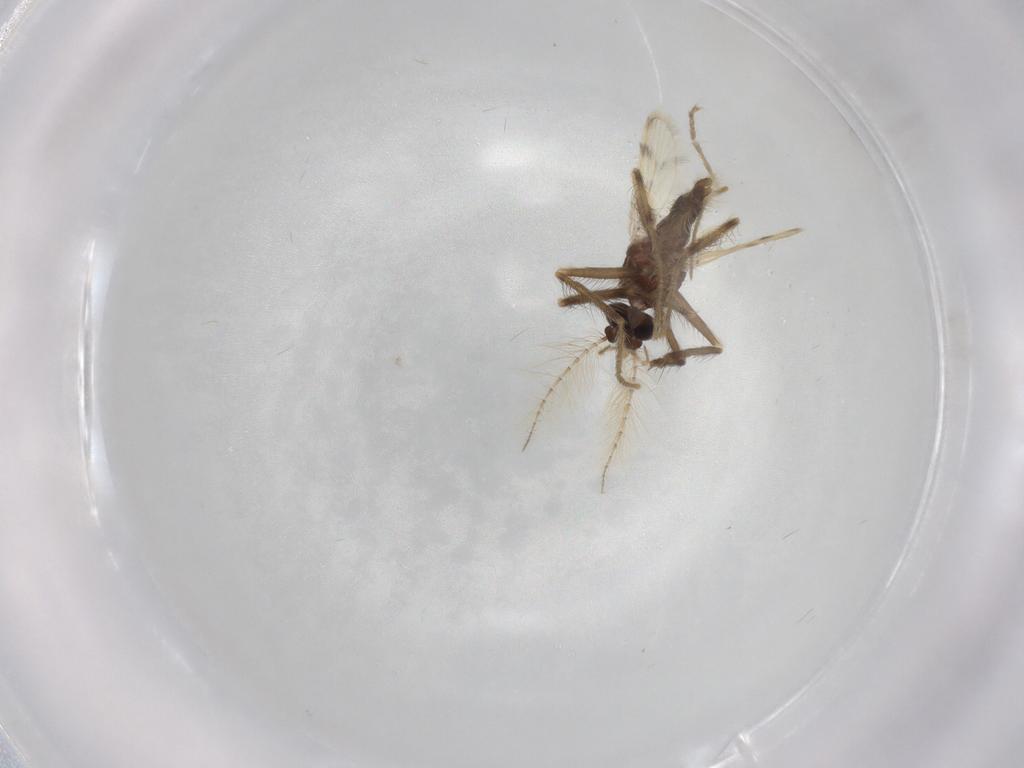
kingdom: Animalia
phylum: Arthropoda
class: Insecta
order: Diptera
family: Corethrellidae
